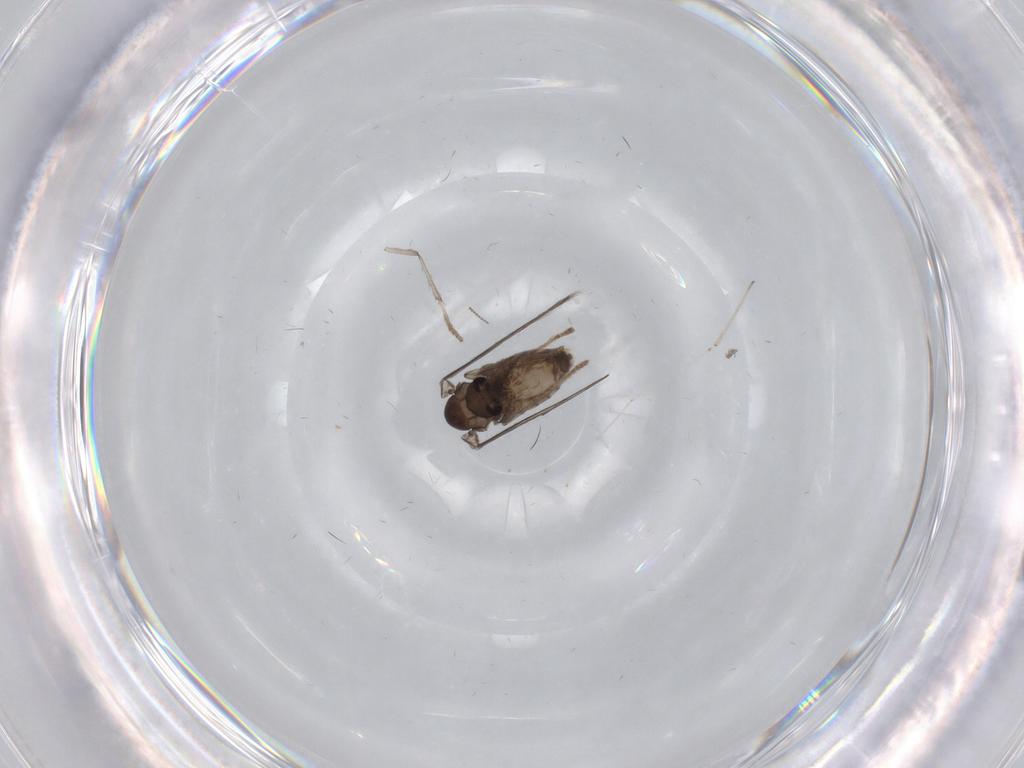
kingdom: Animalia
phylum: Arthropoda
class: Insecta
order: Diptera
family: Psychodidae
